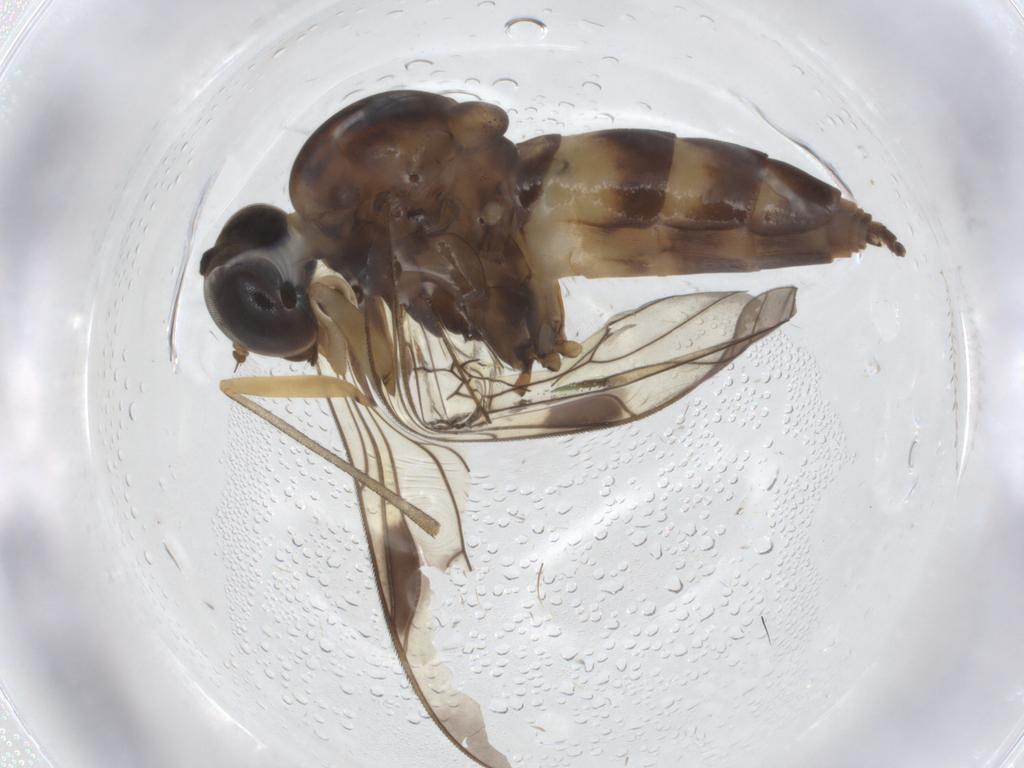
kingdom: Animalia
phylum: Arthropoda
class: Insecta
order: Diptera
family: Tachinidae
